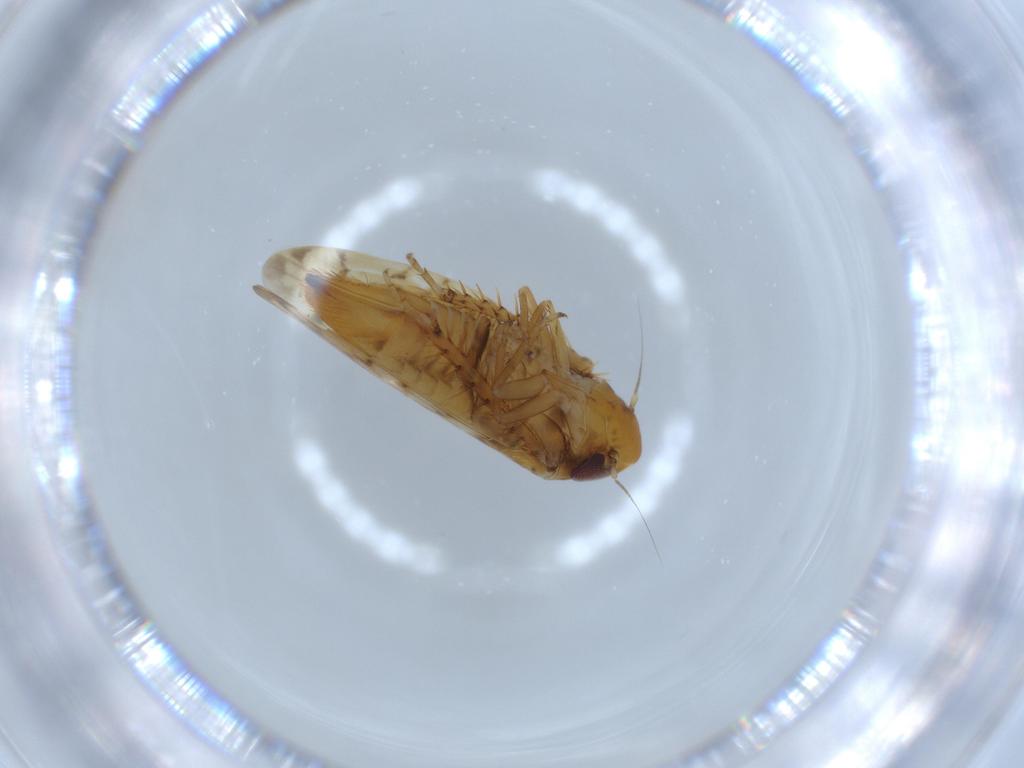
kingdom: Animalia
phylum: Arthropoda
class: Insecta
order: Hemiptera
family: Cicadellidae
